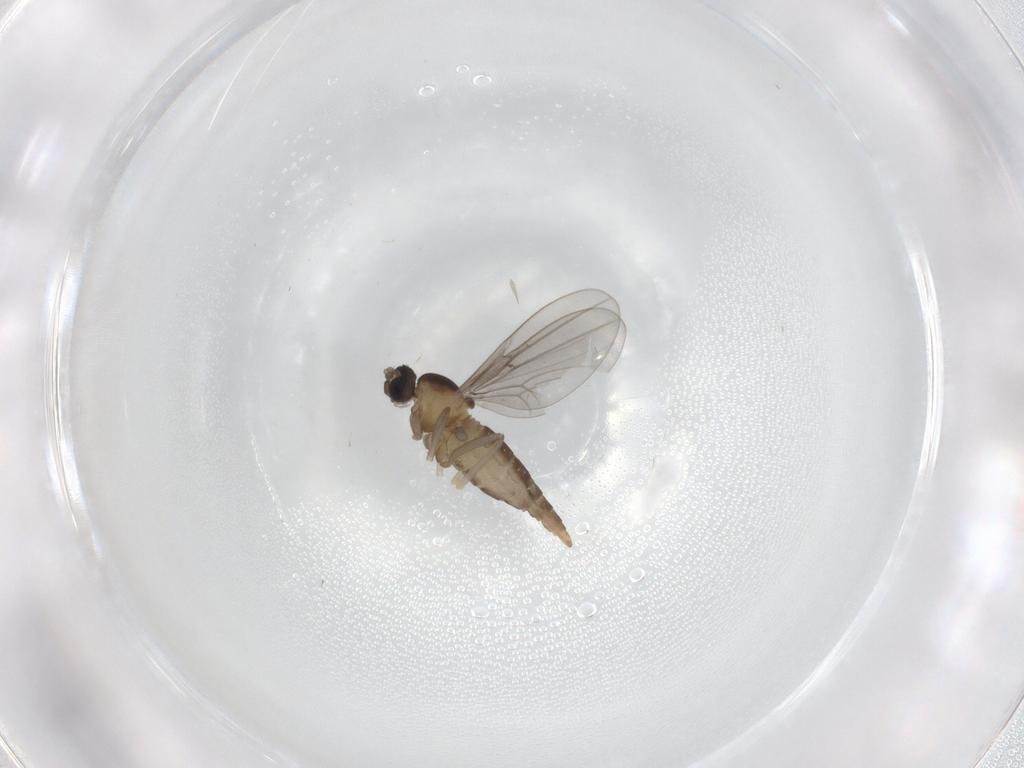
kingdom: Animalia
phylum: Arthropoda
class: Insecta
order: Diptera
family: Cecidomyiidae
